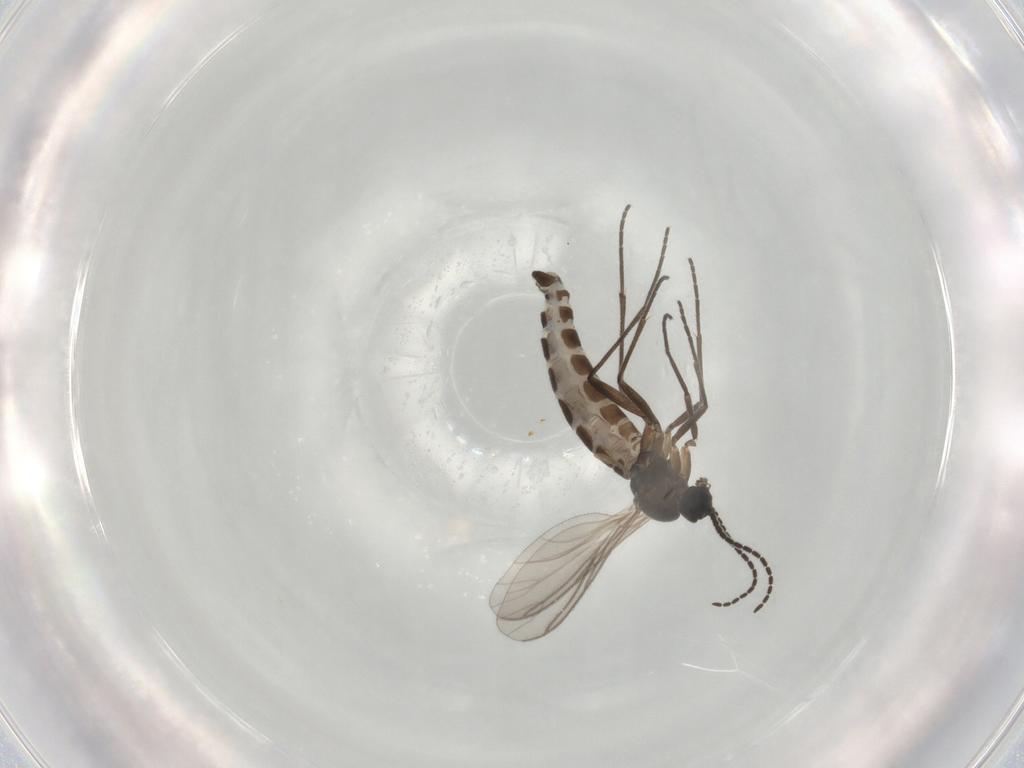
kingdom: Animalia
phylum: Arthropoda
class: Insecta
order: Diptera
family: Sciaridae
